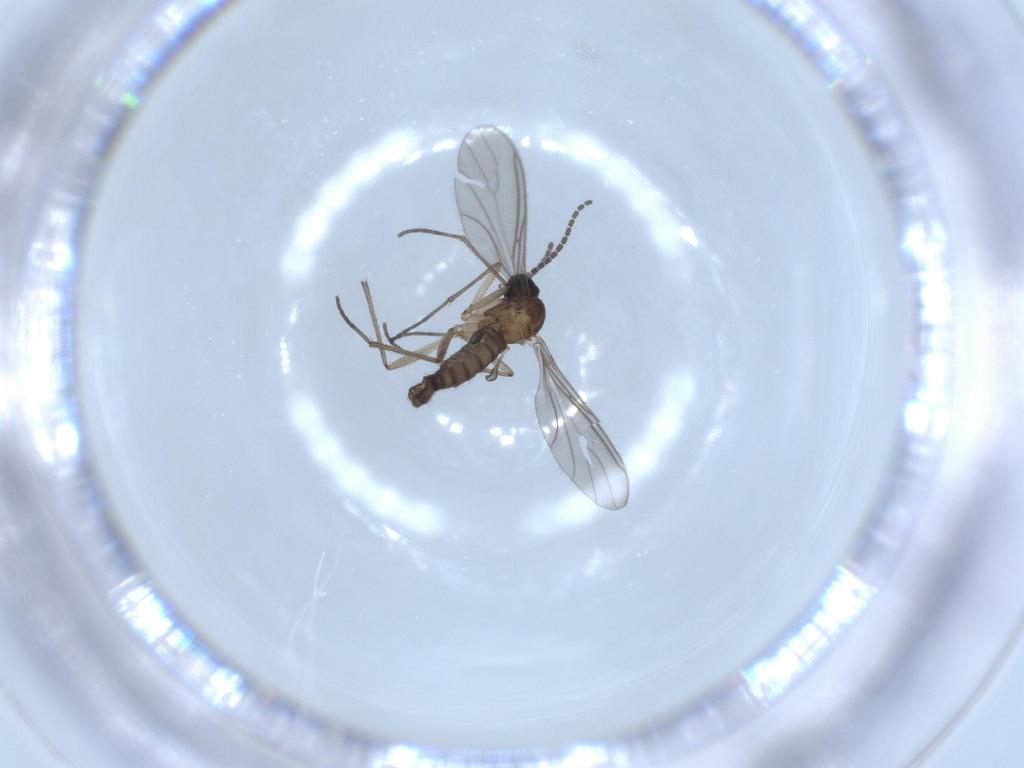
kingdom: Animalia
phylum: Arthropoda
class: Insecta
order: Diptera
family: Sciaridae
